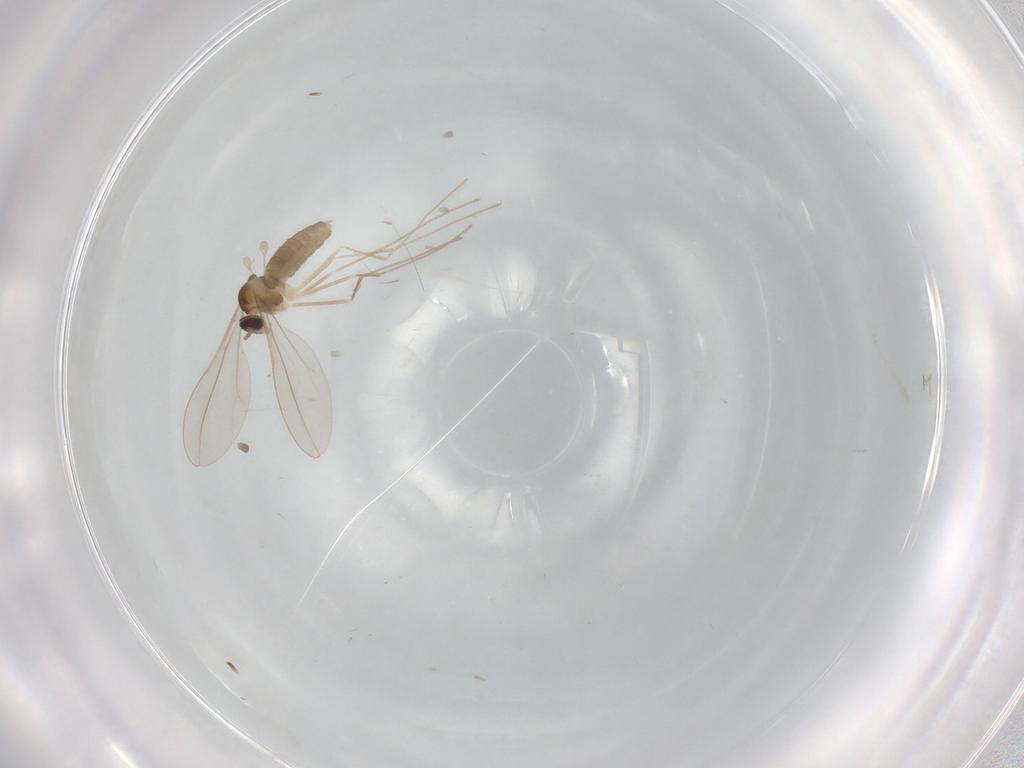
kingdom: Animalia
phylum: Arthropoda
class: Insecta
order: Diptera
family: Cecidomyiidae
